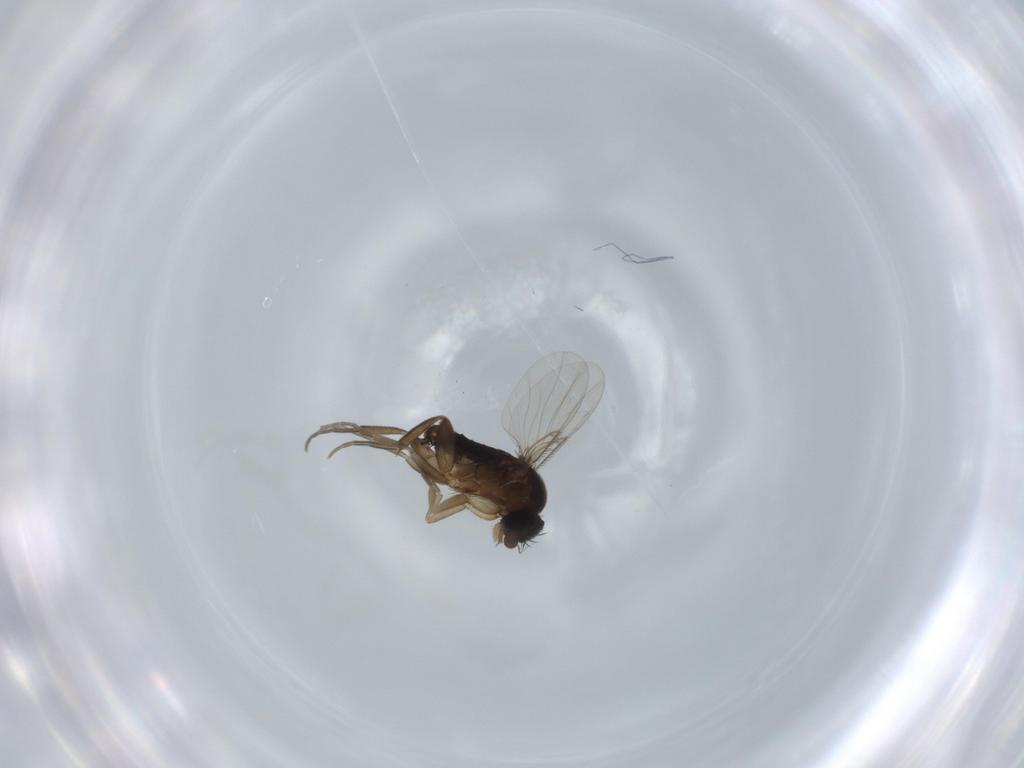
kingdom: Animalia
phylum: Arthropoda
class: Insecta
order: Diptera
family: Phoridae
